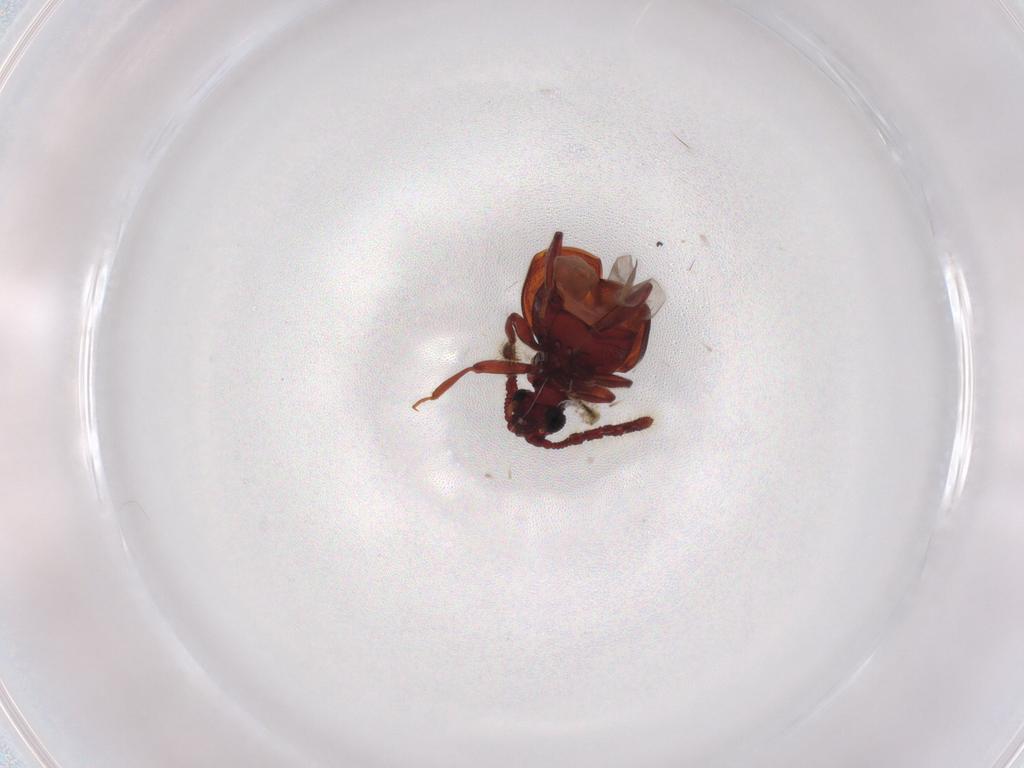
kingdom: Animalia
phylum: Arthropoda
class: Insecta
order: Coleoptera
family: Staphylinidae
